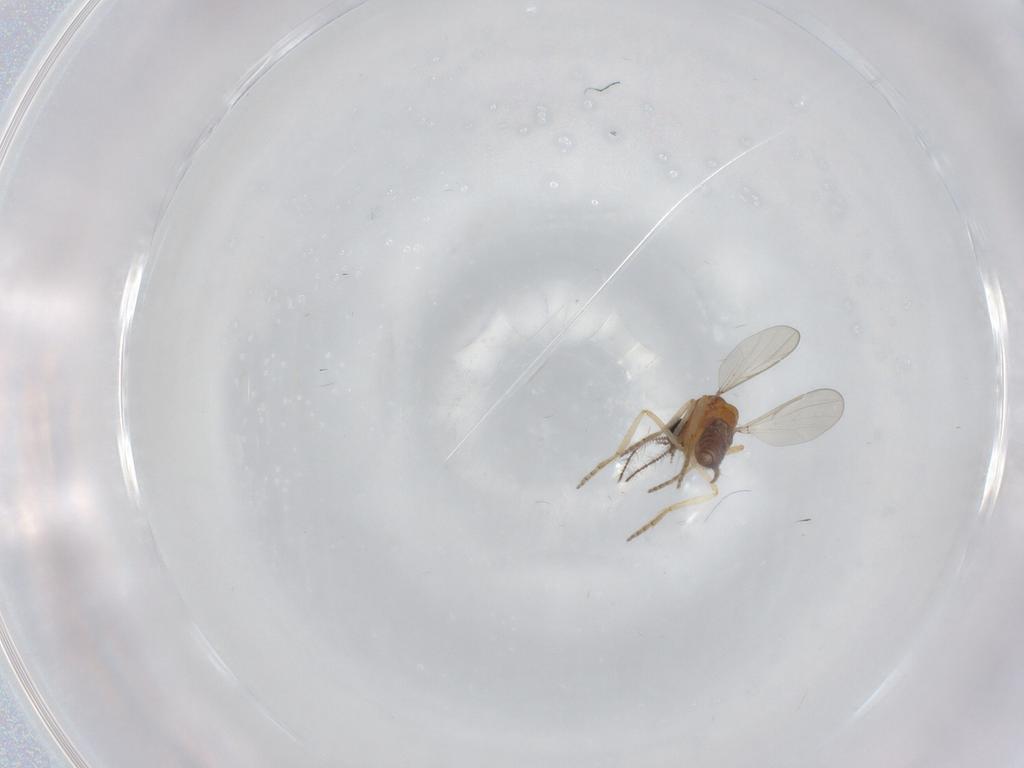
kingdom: Animalia
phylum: Arthropoda
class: Insecta
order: Diptera
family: Ceratopogonidae
